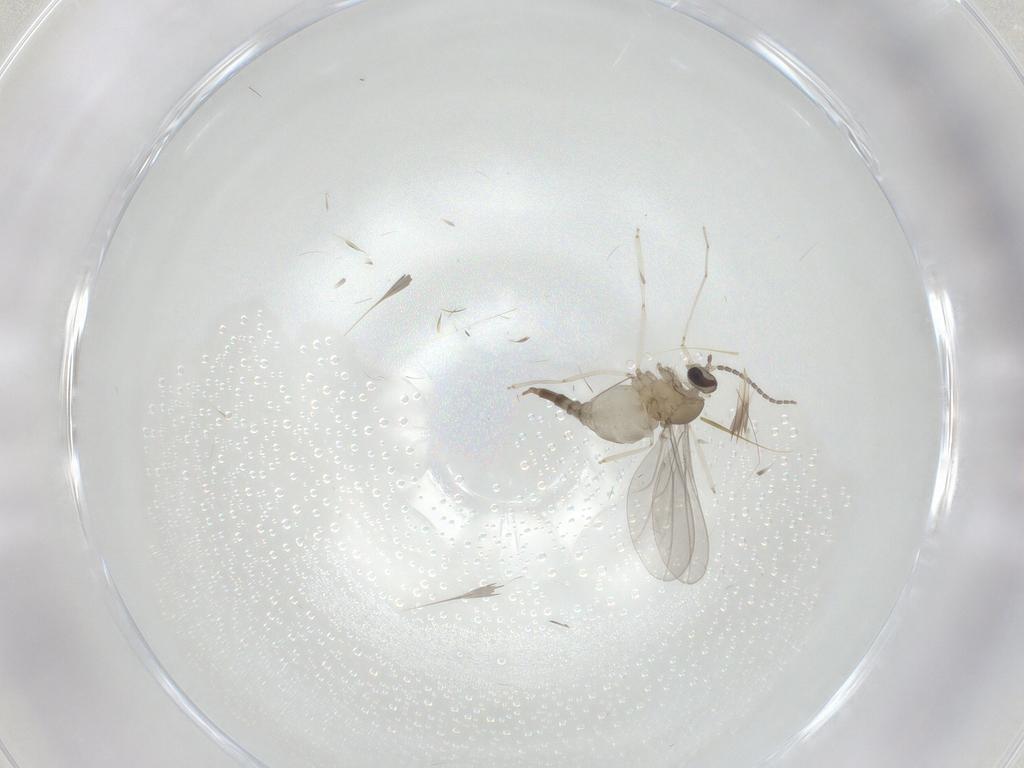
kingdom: Animalia
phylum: Arthropoda
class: Insecta
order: Diptera
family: Cecidomyiidae
